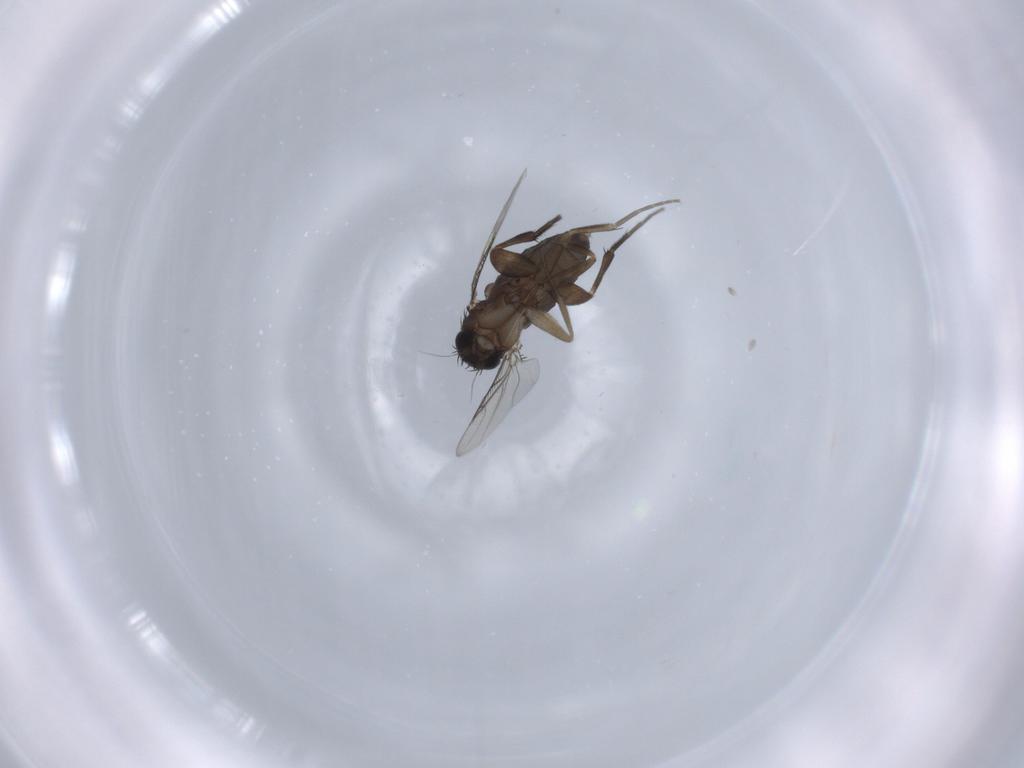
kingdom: Animalia
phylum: Arthropoda
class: Insecta
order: Diptera
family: Phoridae
